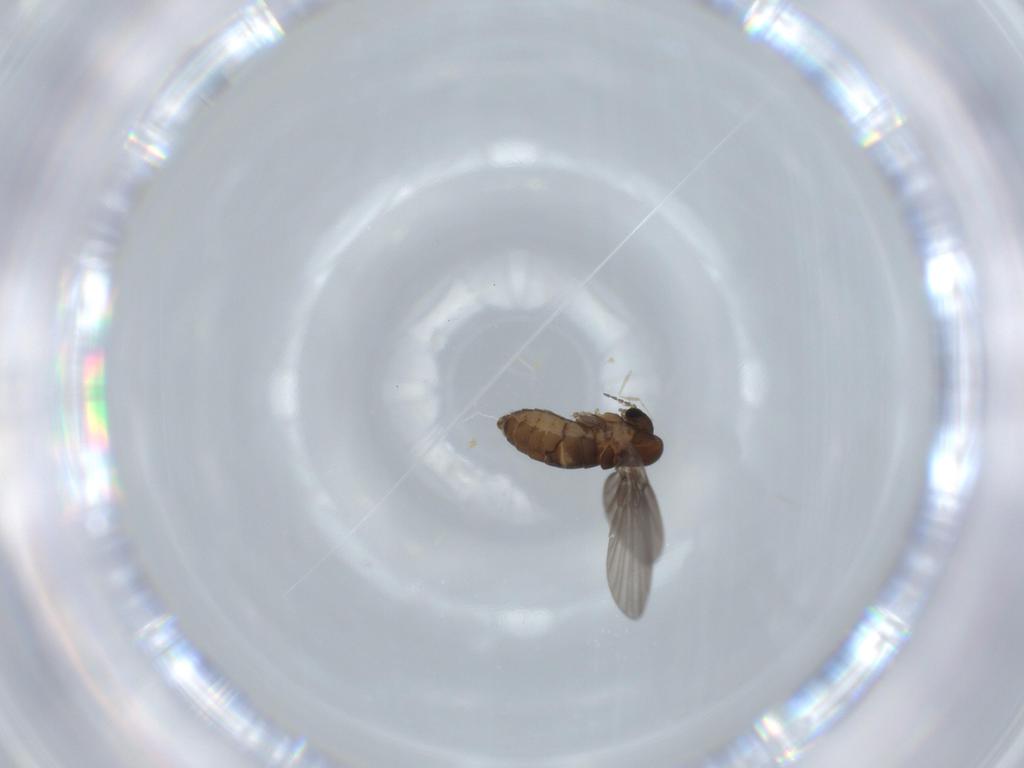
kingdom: Animalia
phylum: Arthropoda
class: Insecta
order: Diptera
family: Psychodidae
